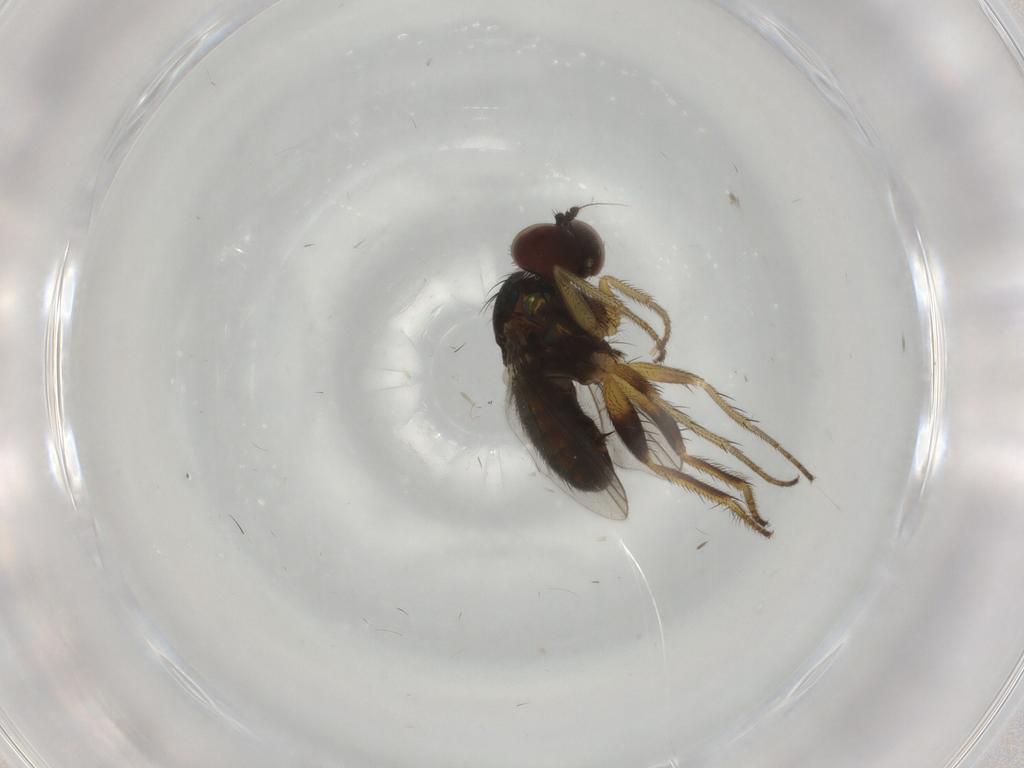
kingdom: Animalia
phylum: Arthropoda
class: Insecta
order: Diptera
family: Dolichopodidae
